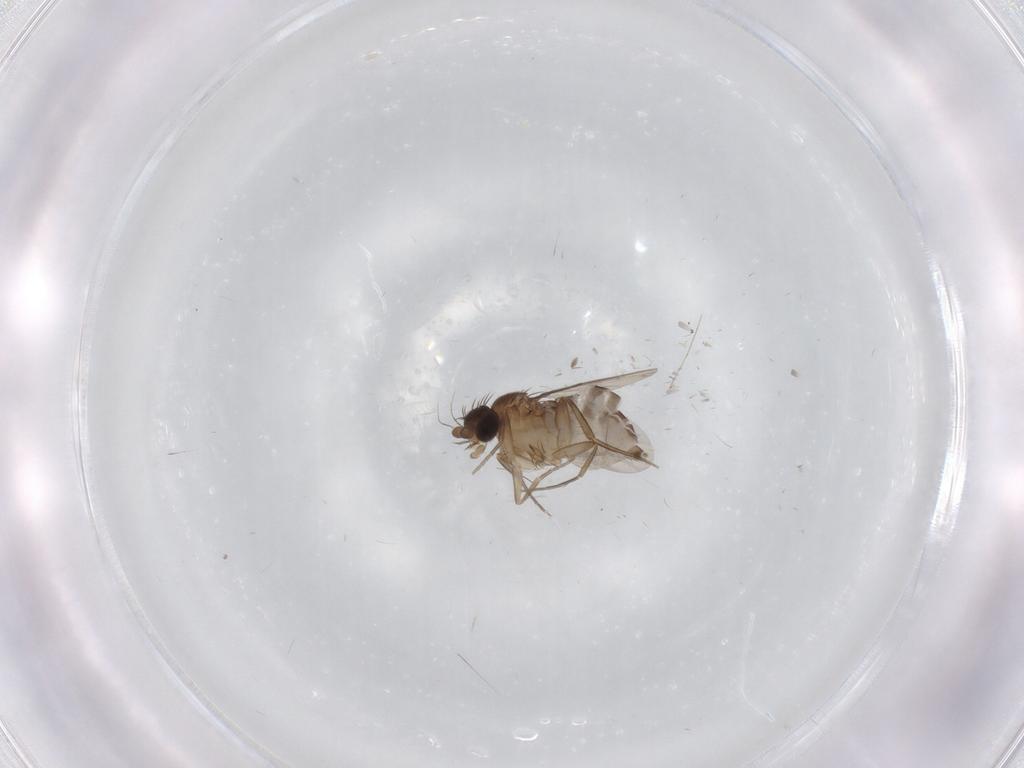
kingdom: Animalia
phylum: Arthropoda
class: Insecta
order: Diptera
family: Phoridae
